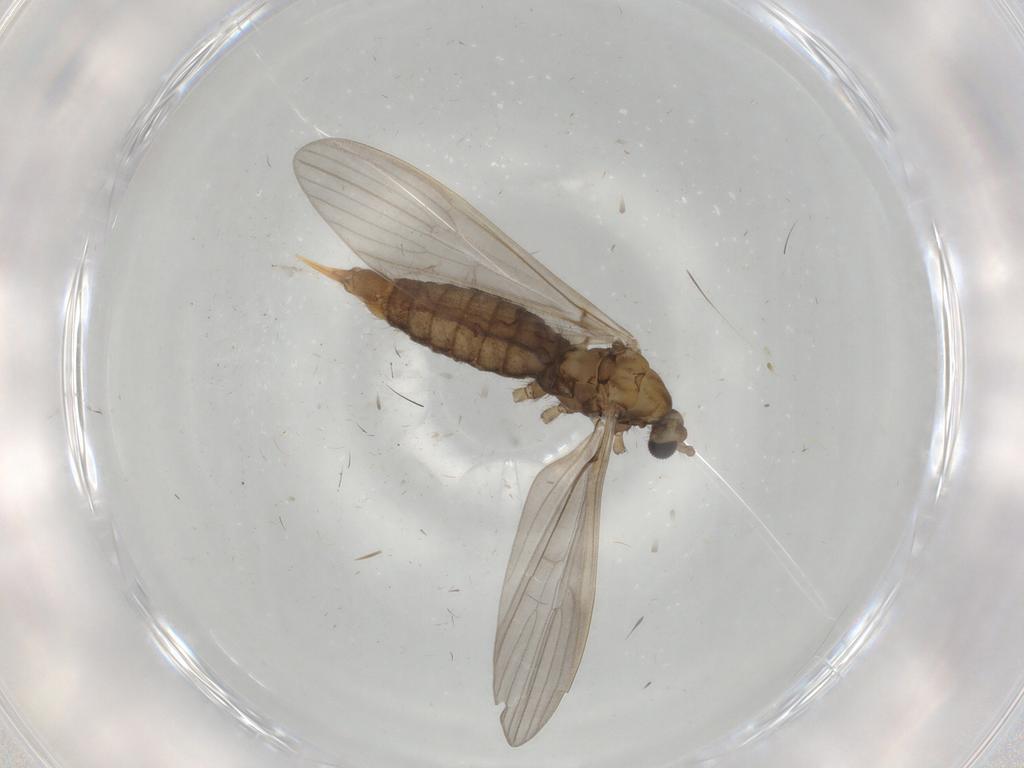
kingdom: Animalia
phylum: Arthropoda
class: Insecta
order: Diptera
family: Limoniidae
